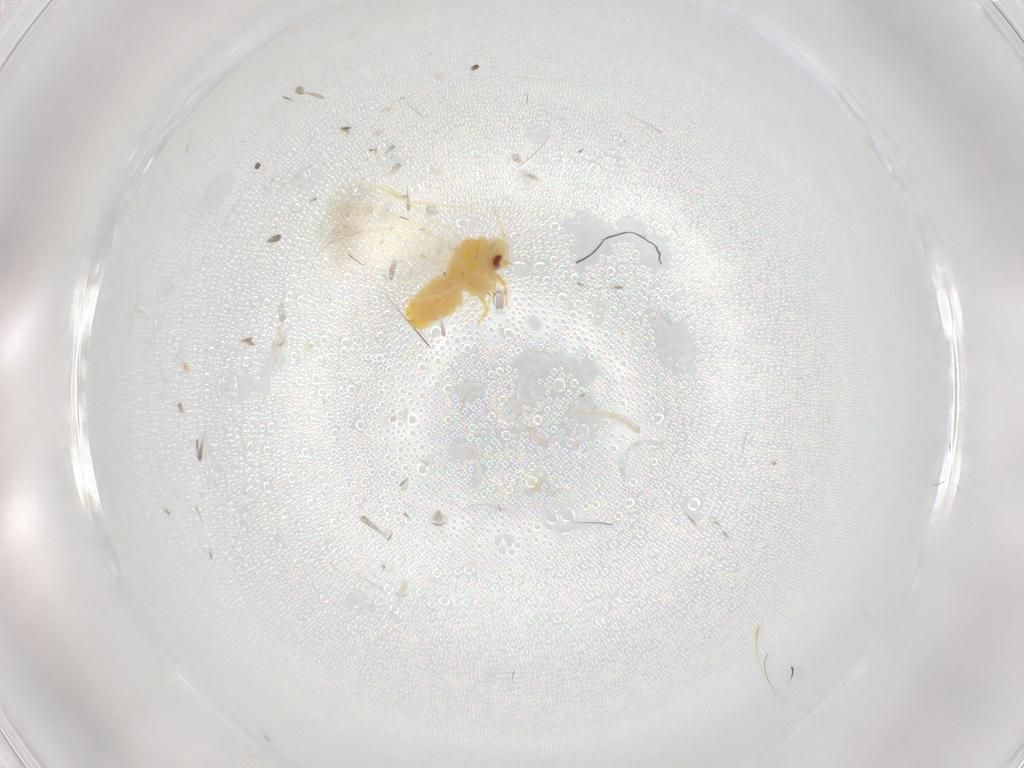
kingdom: Animalia
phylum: Arthropoda
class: Insecta
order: Hemiptera
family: Aleyrodidae
